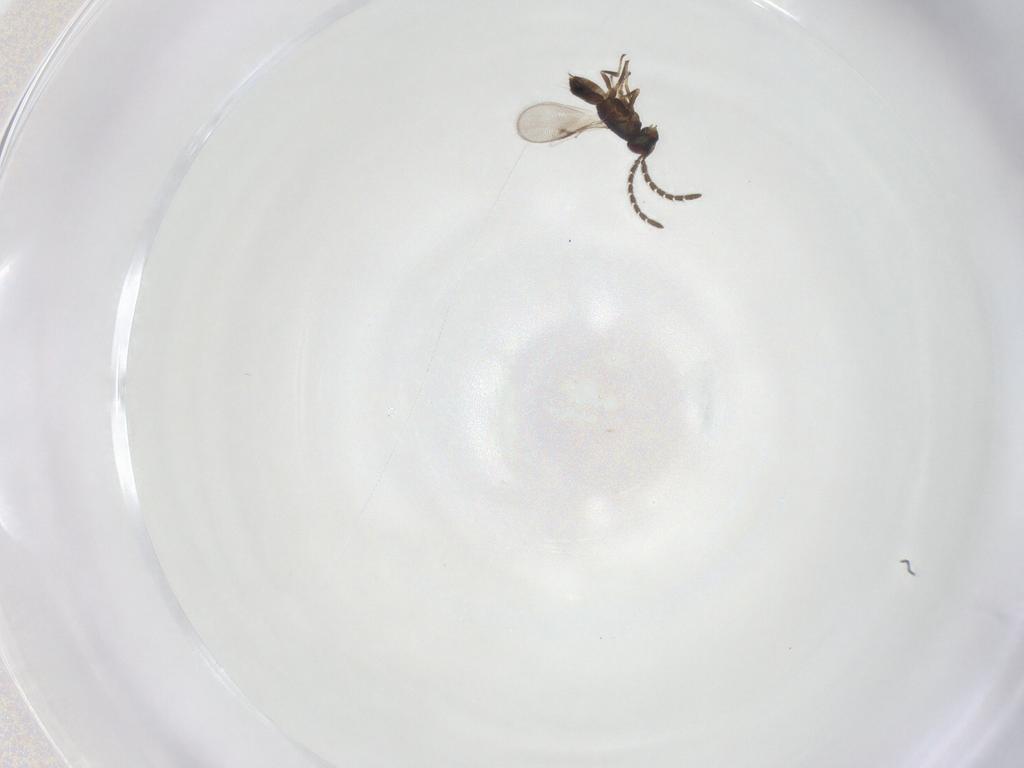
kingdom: Animalia
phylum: Arthropoda
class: Insecta
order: Hymenoptera
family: Encyrtidae
